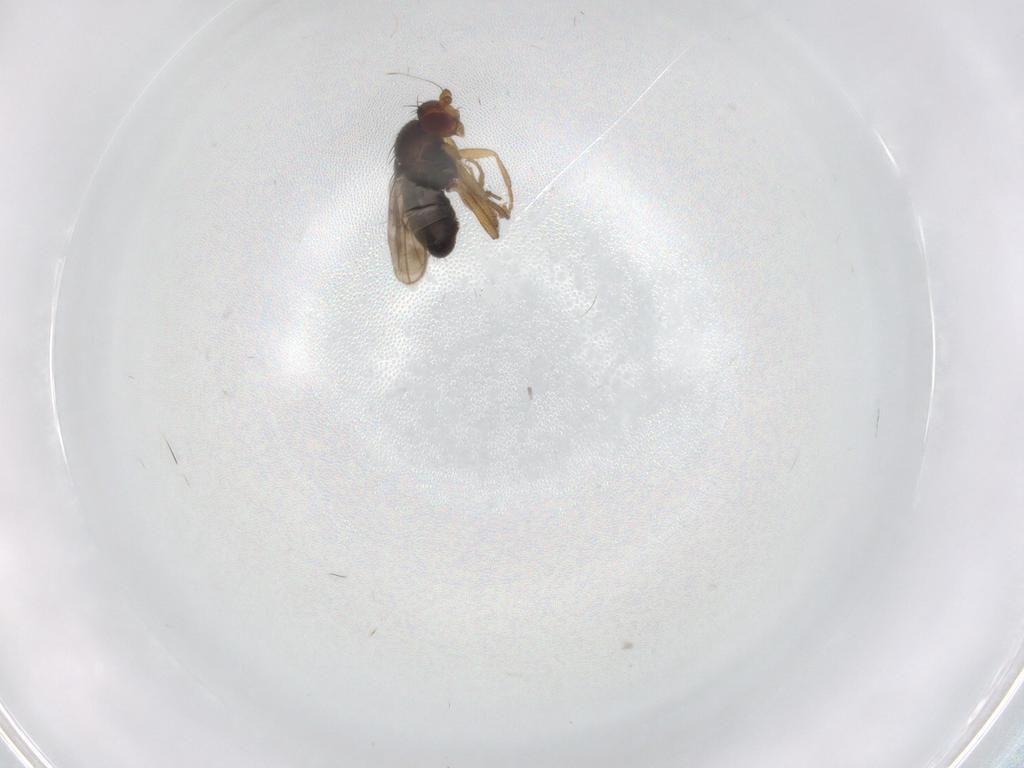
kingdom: Animalia
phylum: Arthropoda
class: Insecta
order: Diptera
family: Sphaeroceridae
